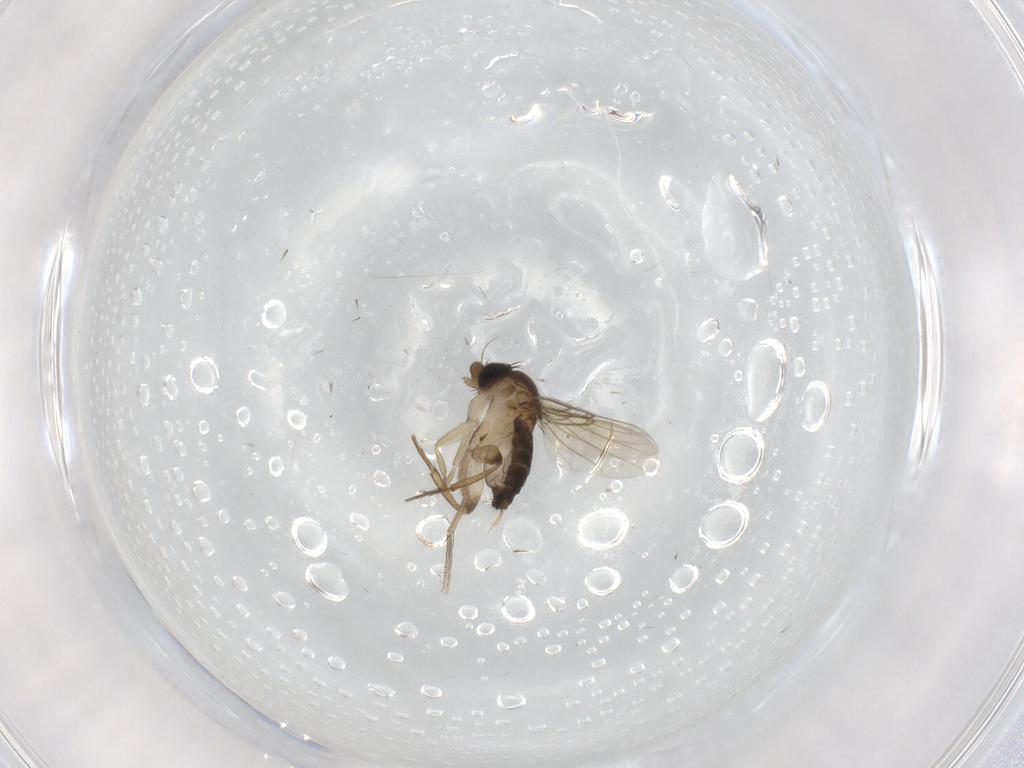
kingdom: Animalia
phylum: Arthropoda
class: Insecta
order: Diptera
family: Phoridae
